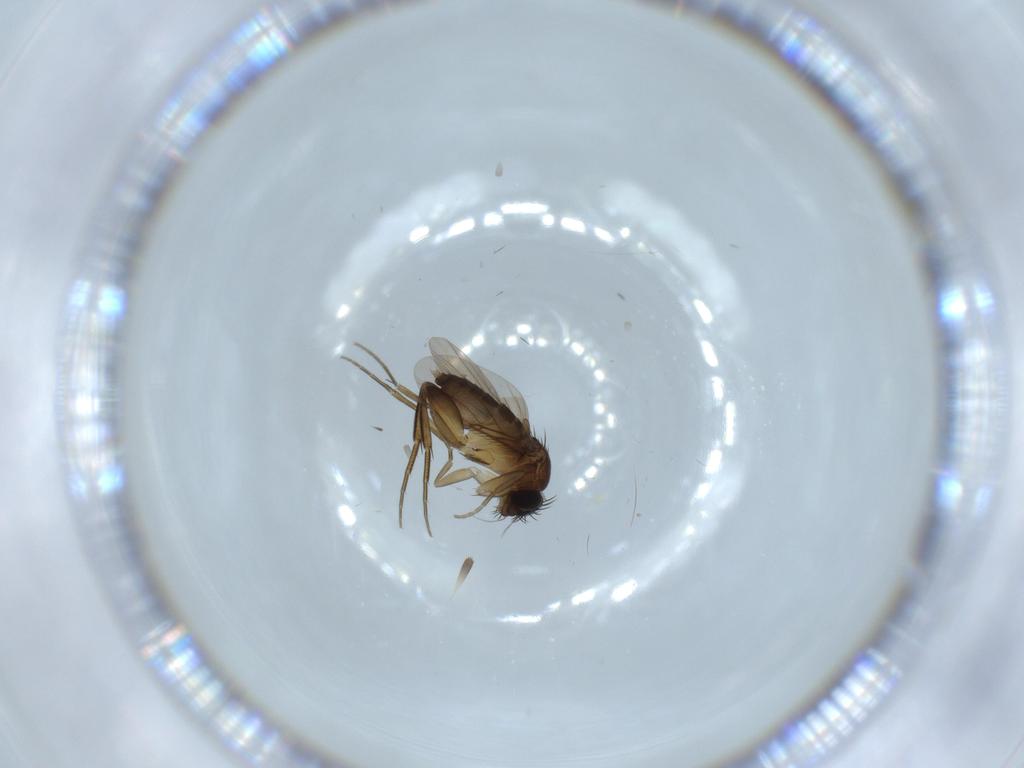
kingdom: Animalia
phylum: Arthropoda
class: Insecta
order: Diptera
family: Phoridae
